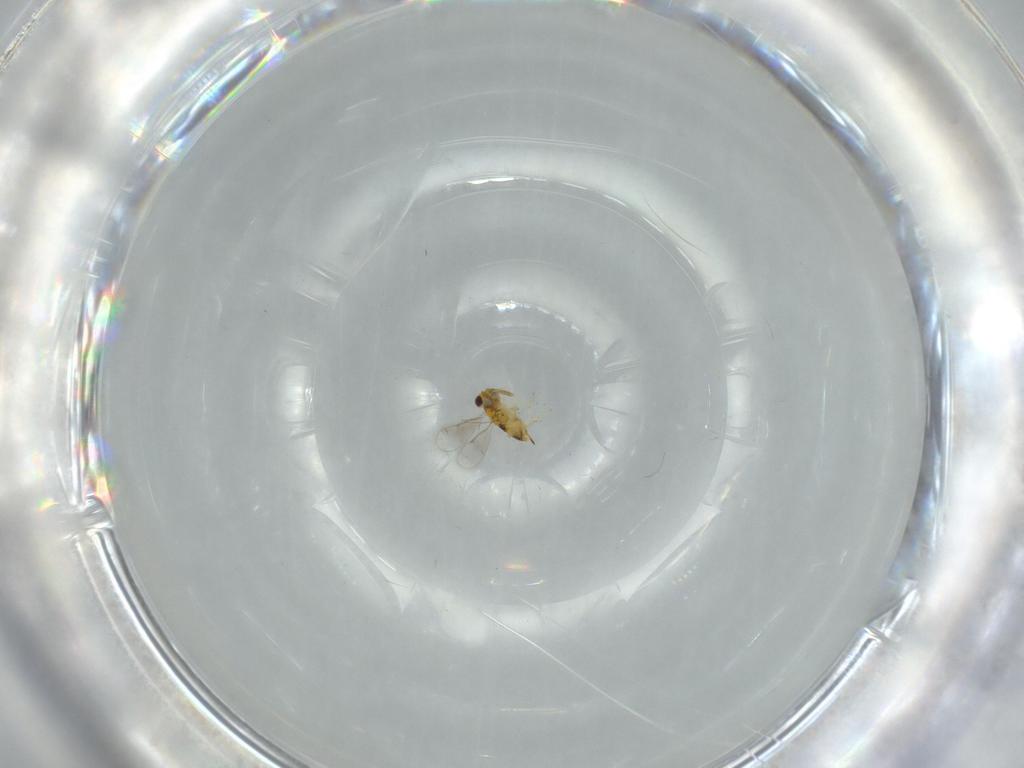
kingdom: Animalia
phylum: Arthropoda
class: Insecta
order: Hymenoptera
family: Aphelinidae
